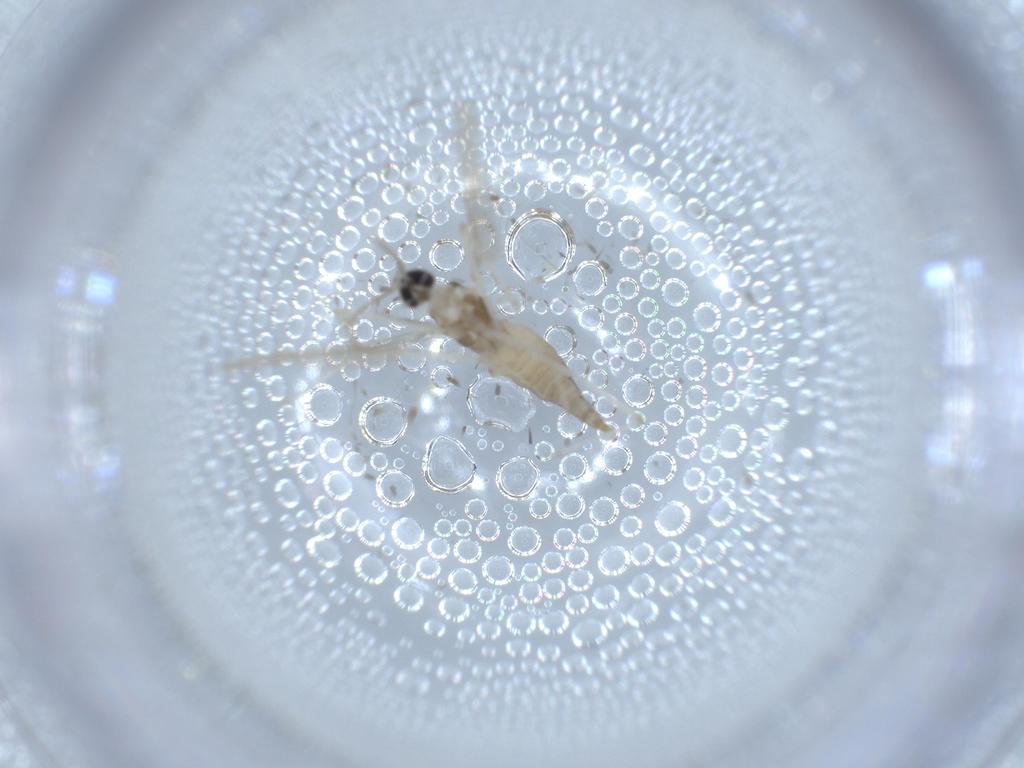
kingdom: Animalia
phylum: Arthropoda
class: Insecta
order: Diptera
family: Cecidomyiidae
